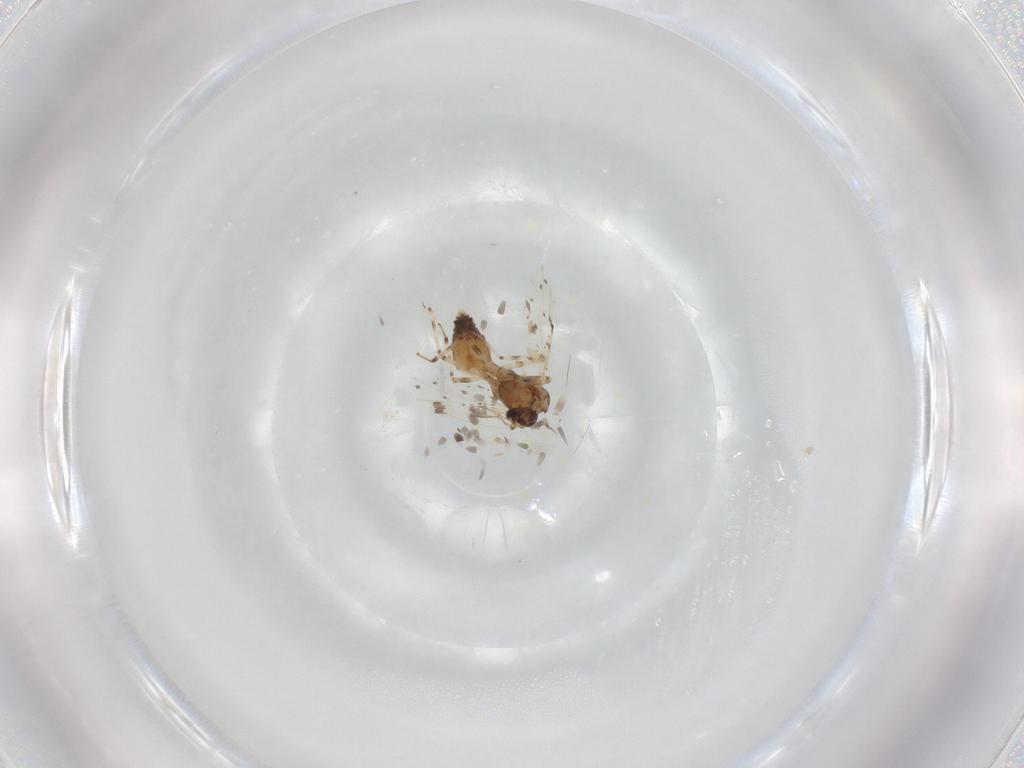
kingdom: Animalia
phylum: Arthropoda
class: Insecta
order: Diptera
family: Ceratopogonidae
